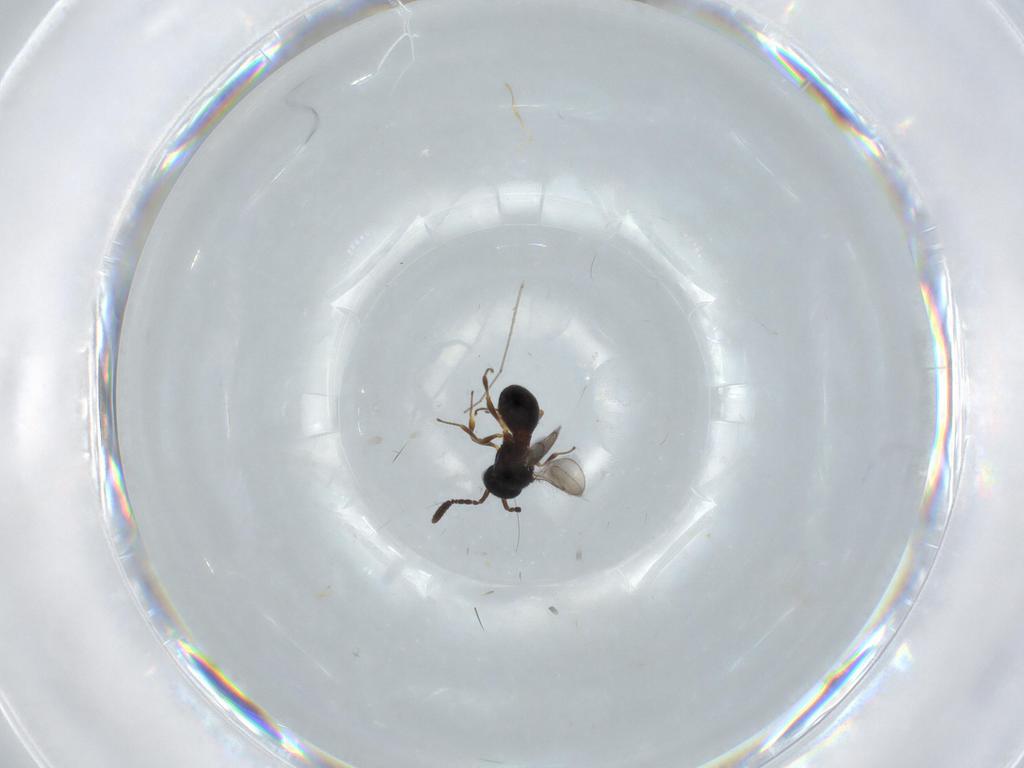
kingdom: Animalia
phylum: Arthropoda
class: Insecta
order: Hymenoptera
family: Scelionidae
